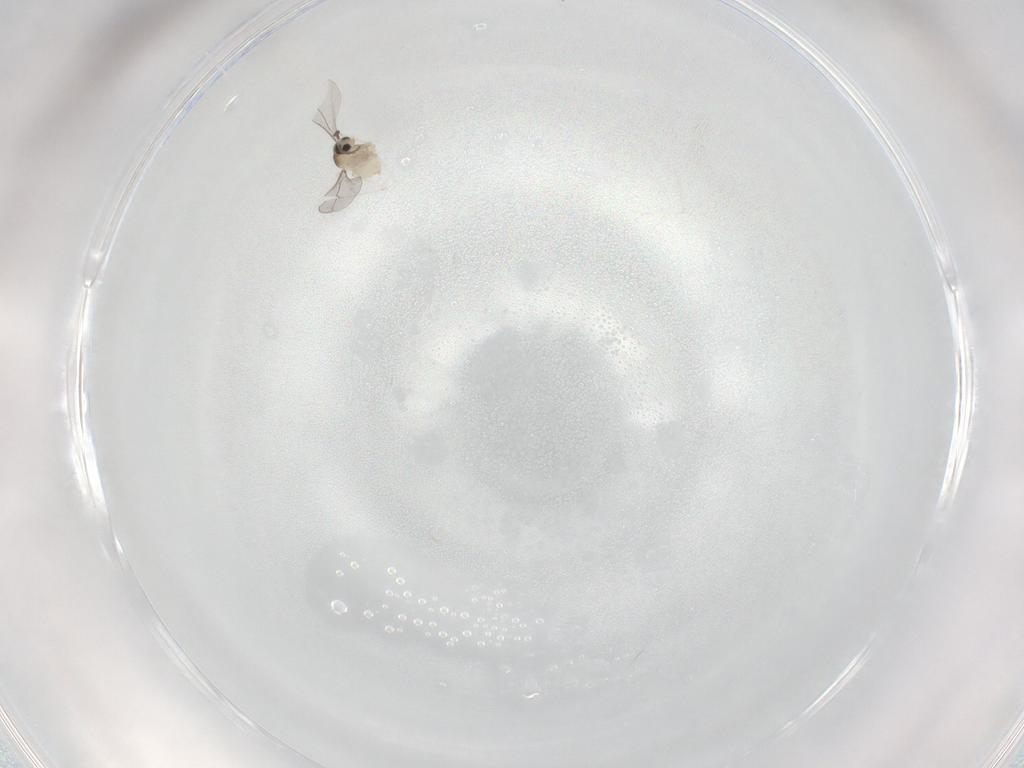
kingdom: Animalia
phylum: Arthropoda
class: Insecta
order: Diptera
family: Cecidomyiidae
